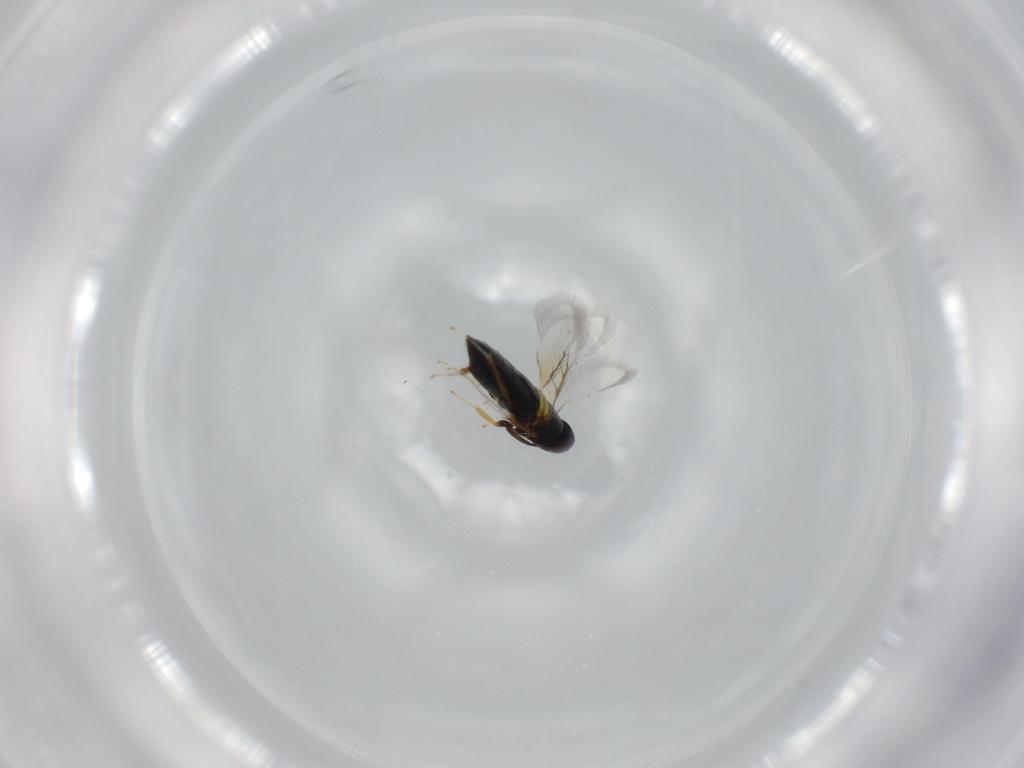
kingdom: Animalia
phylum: Arthropoda
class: Insecta
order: Hymenoptera
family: Signiphoridae
